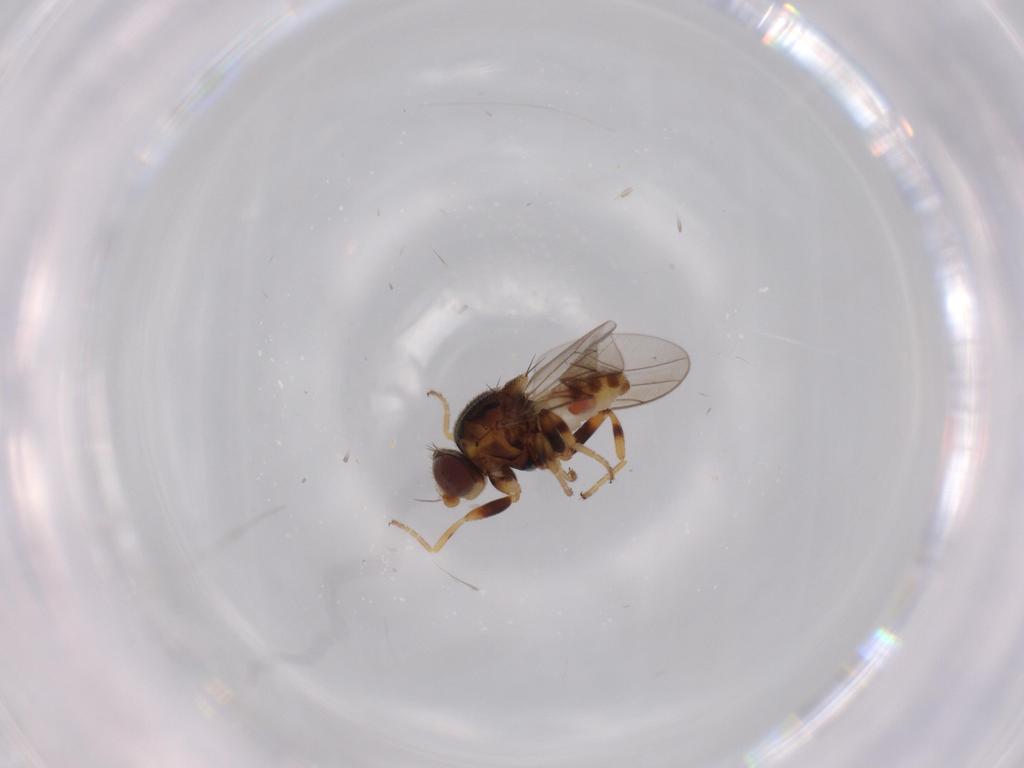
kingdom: Animalia
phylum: Arthropoda
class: Insecta
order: Diptera
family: Chloropidae
